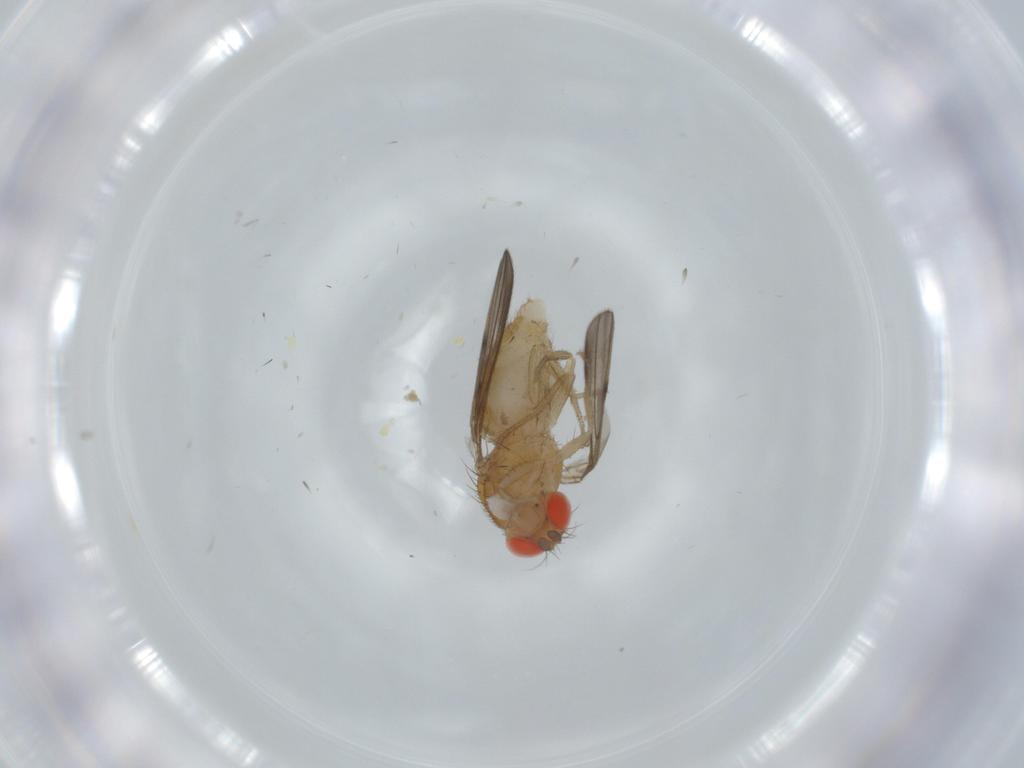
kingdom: Animalia
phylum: Arthropoda
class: Insecta
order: Diptera
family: Drosophilidae
